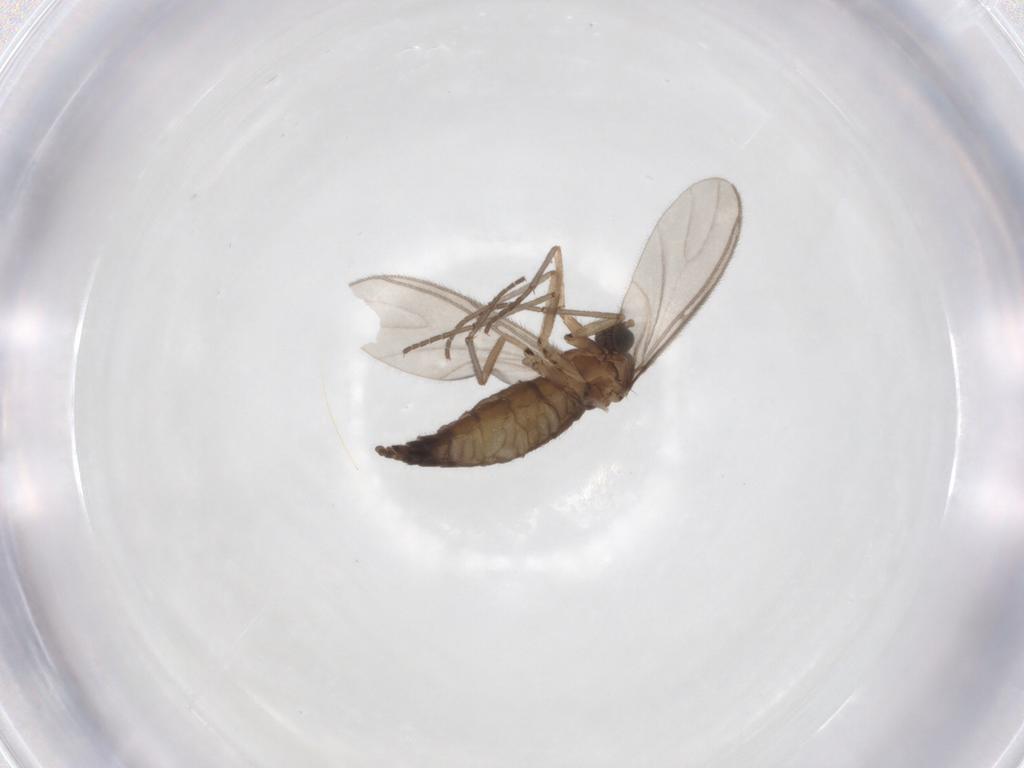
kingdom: Animalia
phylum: Arthropoda
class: Insecta
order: Diptera
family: Sciaridae
